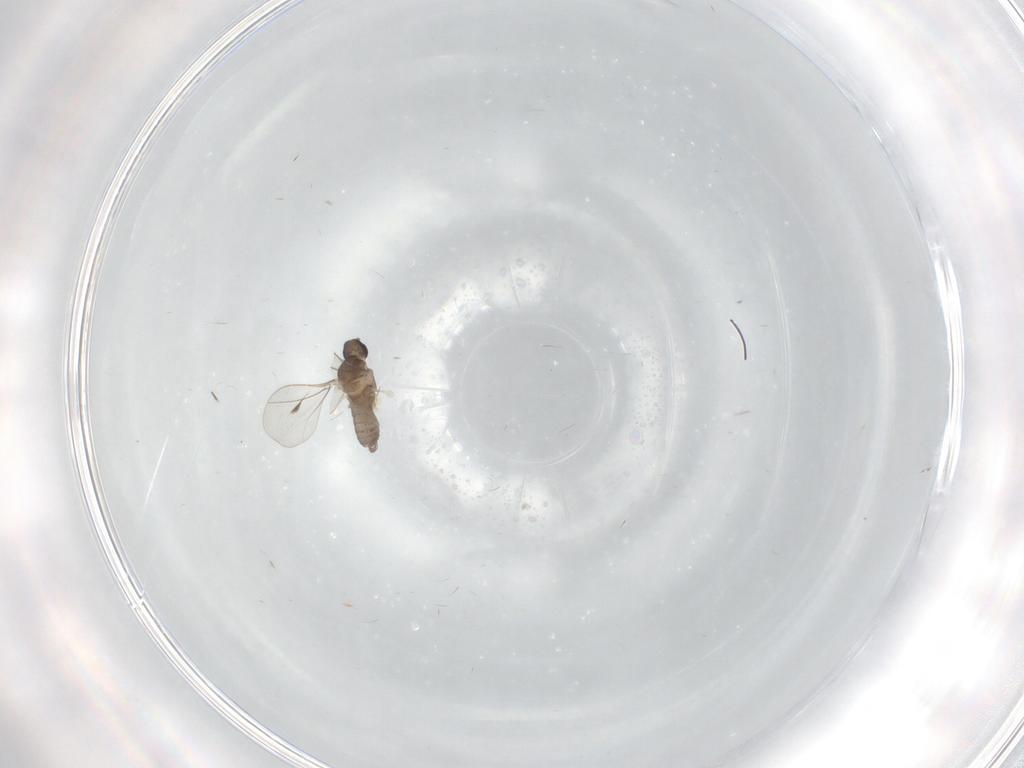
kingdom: Animalia
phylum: Arthropoda
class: Insecta
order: Diptera
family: Cecidomyiidae
